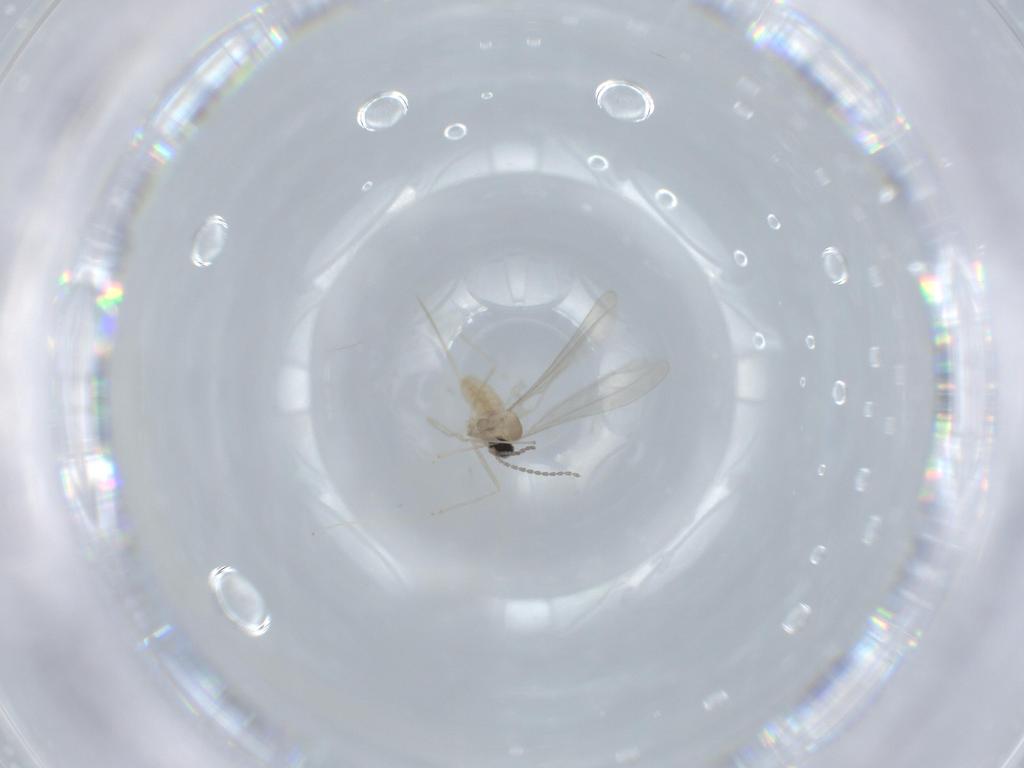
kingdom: Animalia
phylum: Arthropoda
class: Insecta
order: Diptera
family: Cecidomyiidae
